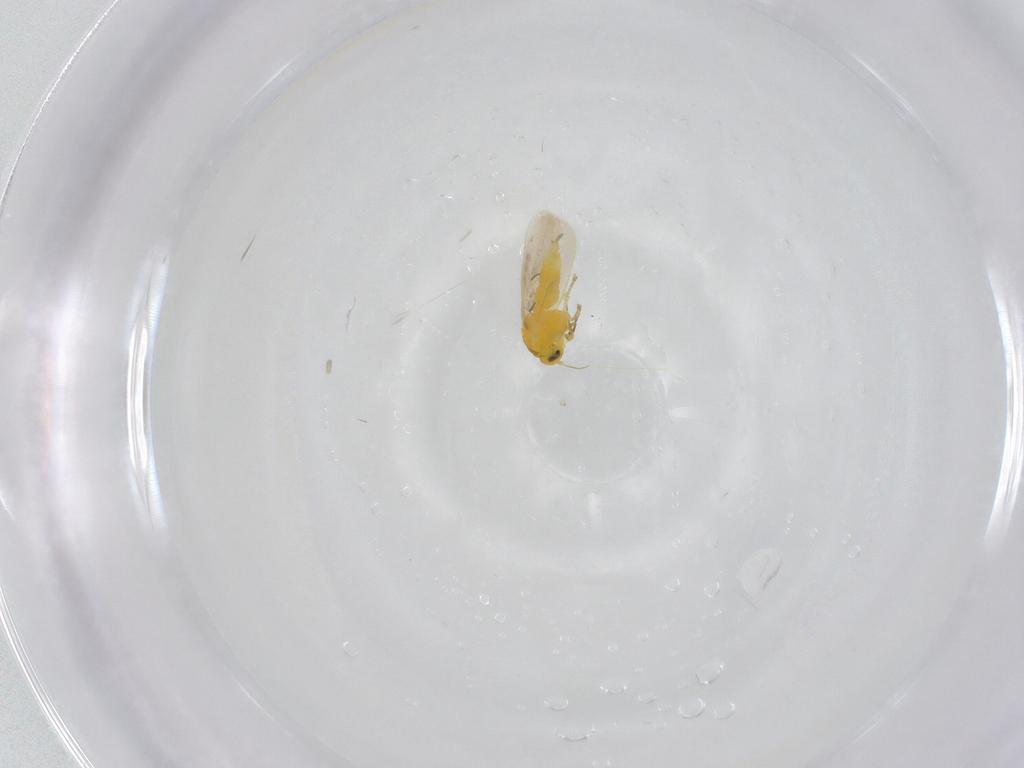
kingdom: Animalia
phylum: Arthropoda
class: Insecta
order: Hemiptera
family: Aleyrodidae
